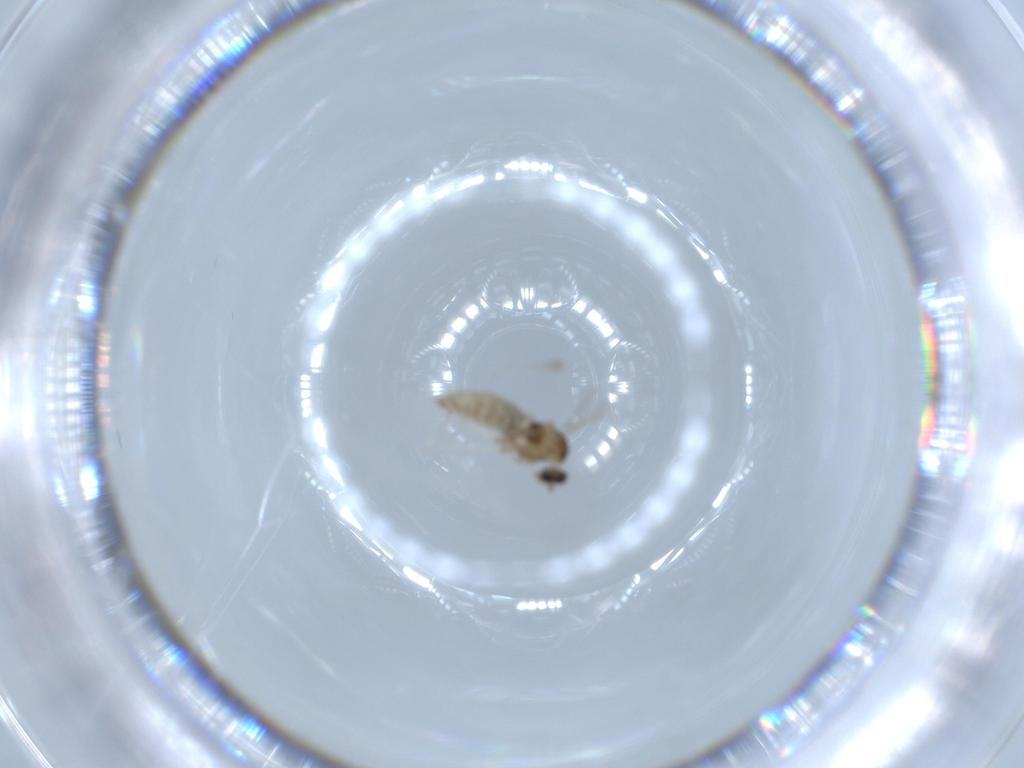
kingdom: Animalia
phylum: Arthropoda
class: Insecta
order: Diptera
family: Cecidomyiidae
